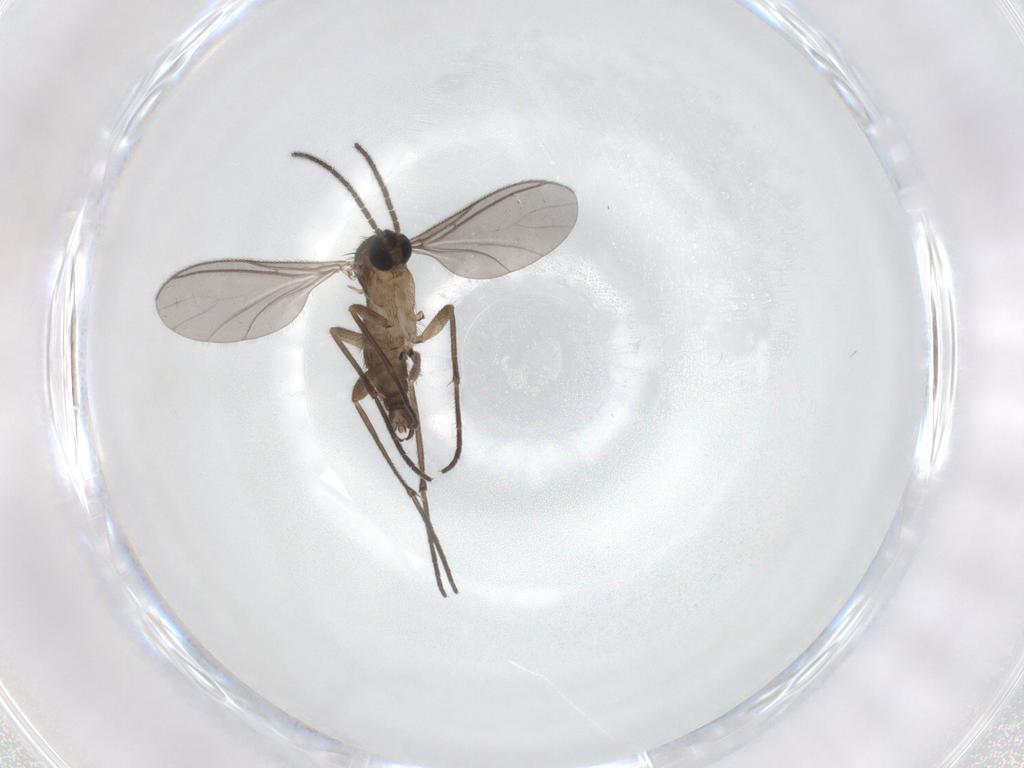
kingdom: Animalia
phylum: Arthropoda
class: Insecta
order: Diptera
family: Sciaridae
